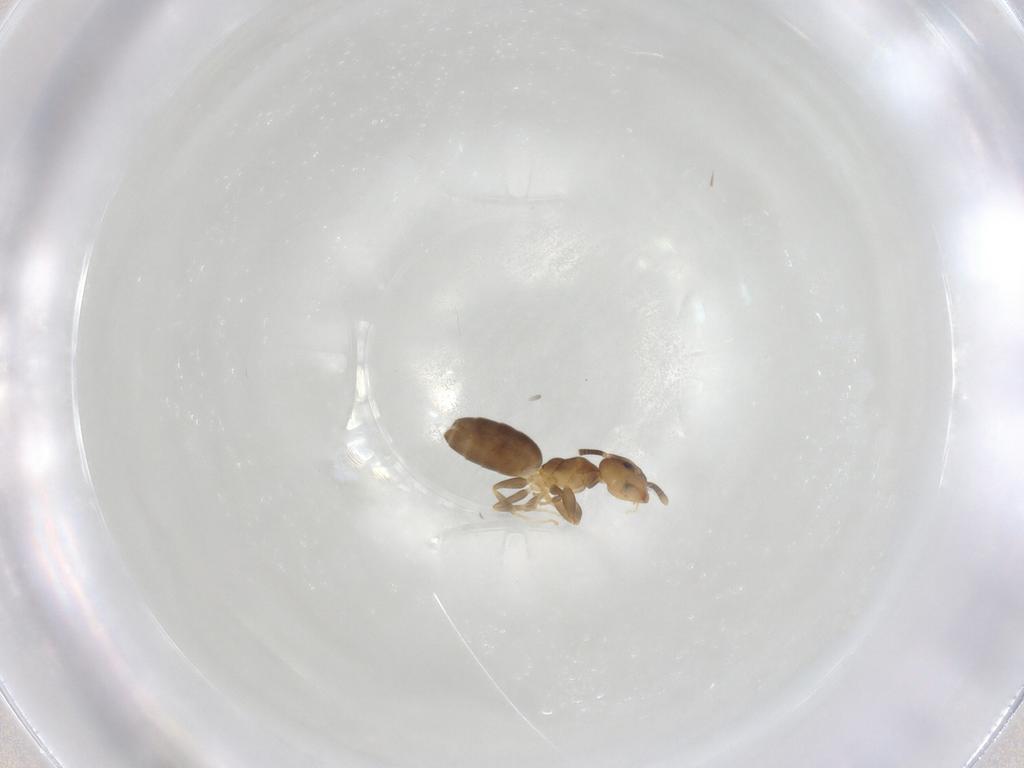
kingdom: Animalia
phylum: Arthropoda
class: Insecta
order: Hymenoptera
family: Formicidae
